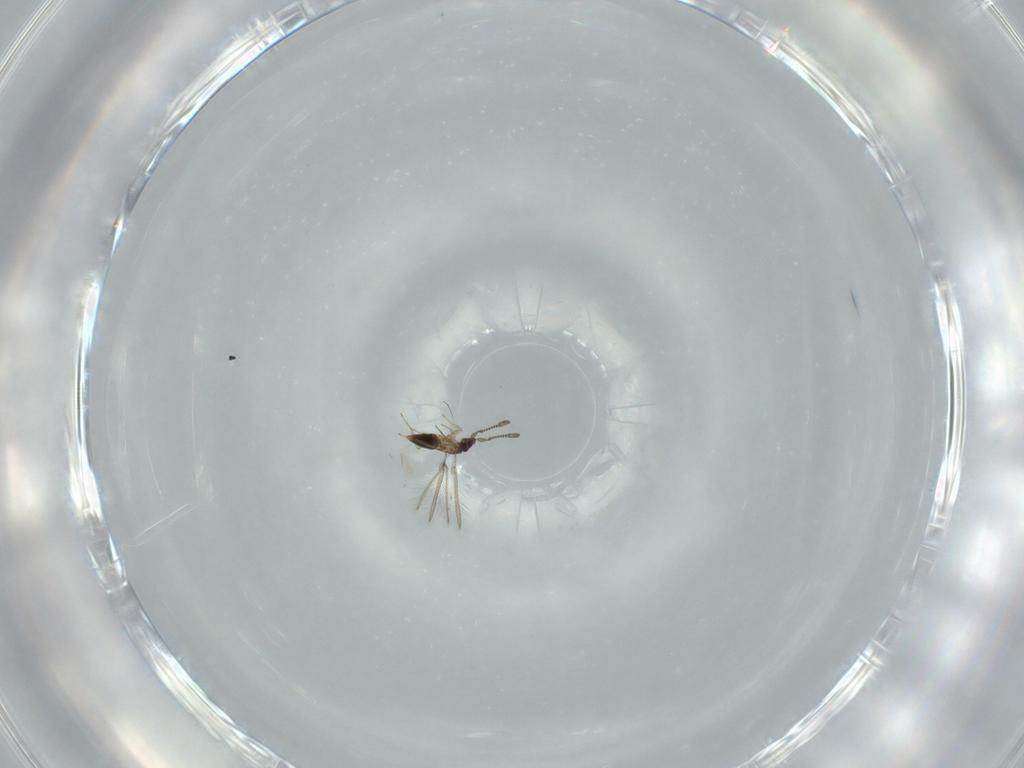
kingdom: Animalia
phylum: Arthropoda
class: Insecta
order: Hymenoptera
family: Mymaridae
